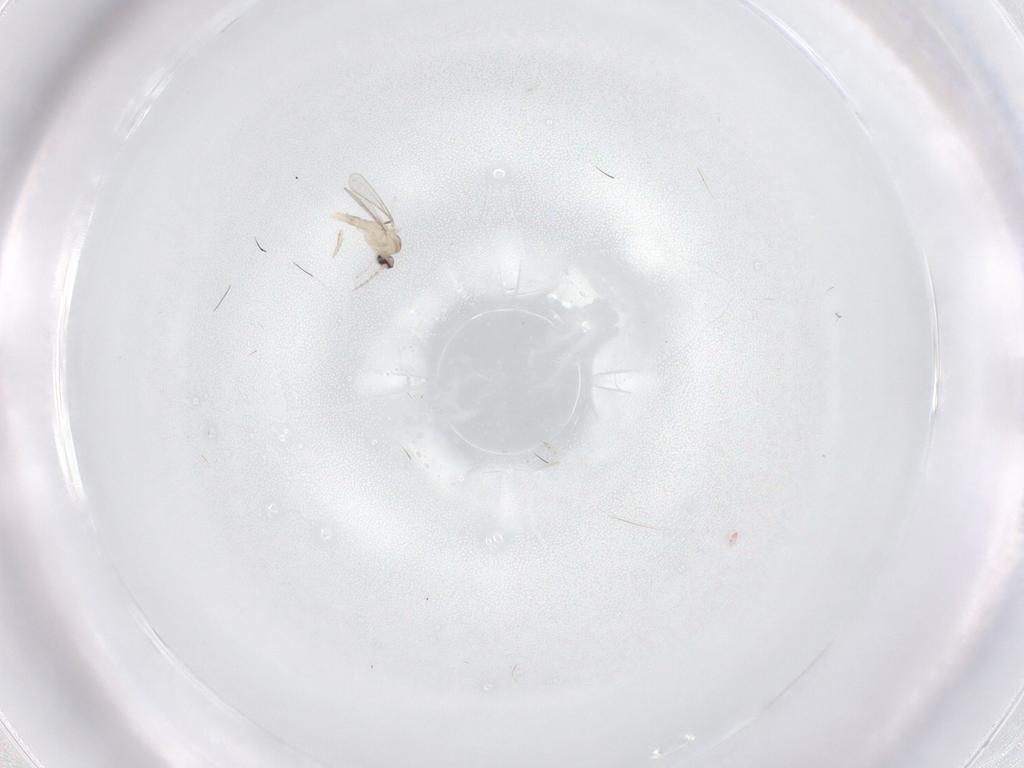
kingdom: Animalia
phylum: Arthropoda
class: Insecta
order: Diptera
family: Cecidomyiidae
